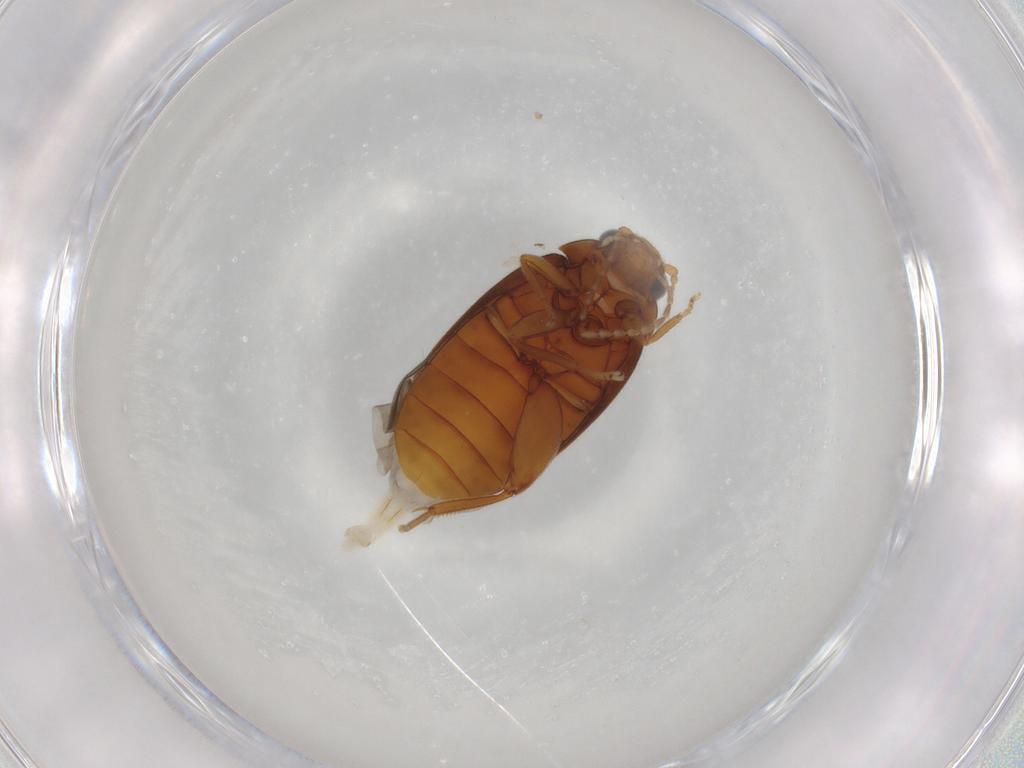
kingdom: Animalia
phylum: Arthropoda
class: Insecta
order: Coleoptera
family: Scirtidae
